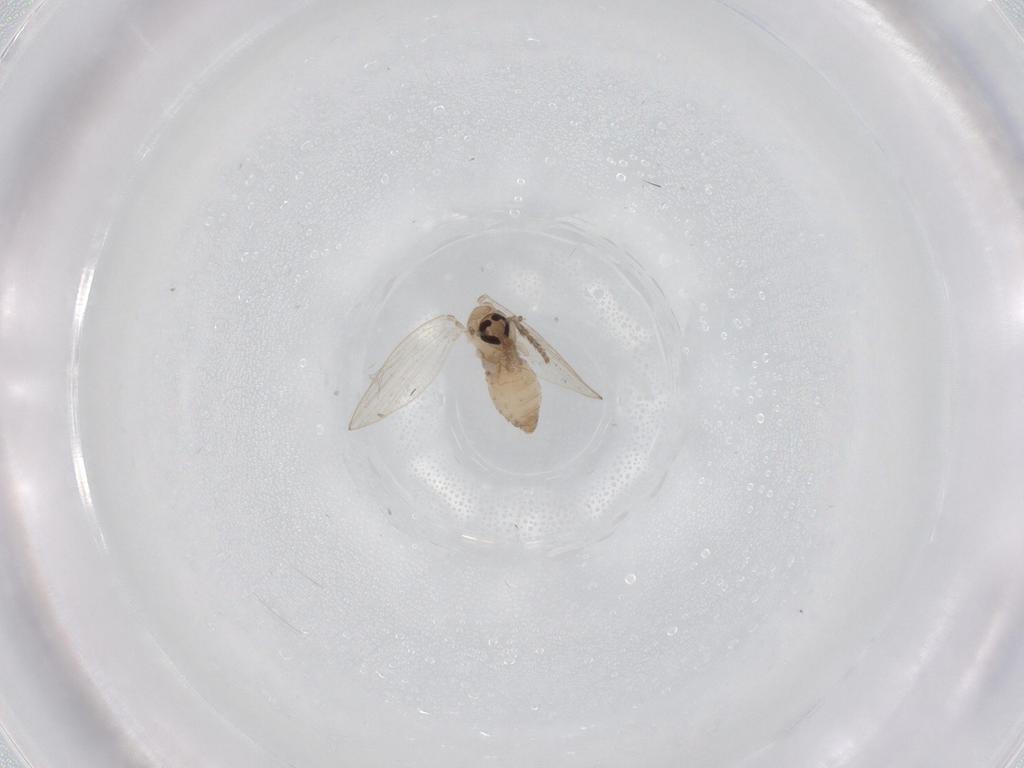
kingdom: Animalia
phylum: Arthropoda
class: Insecta
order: Diptera
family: Psychodidae
